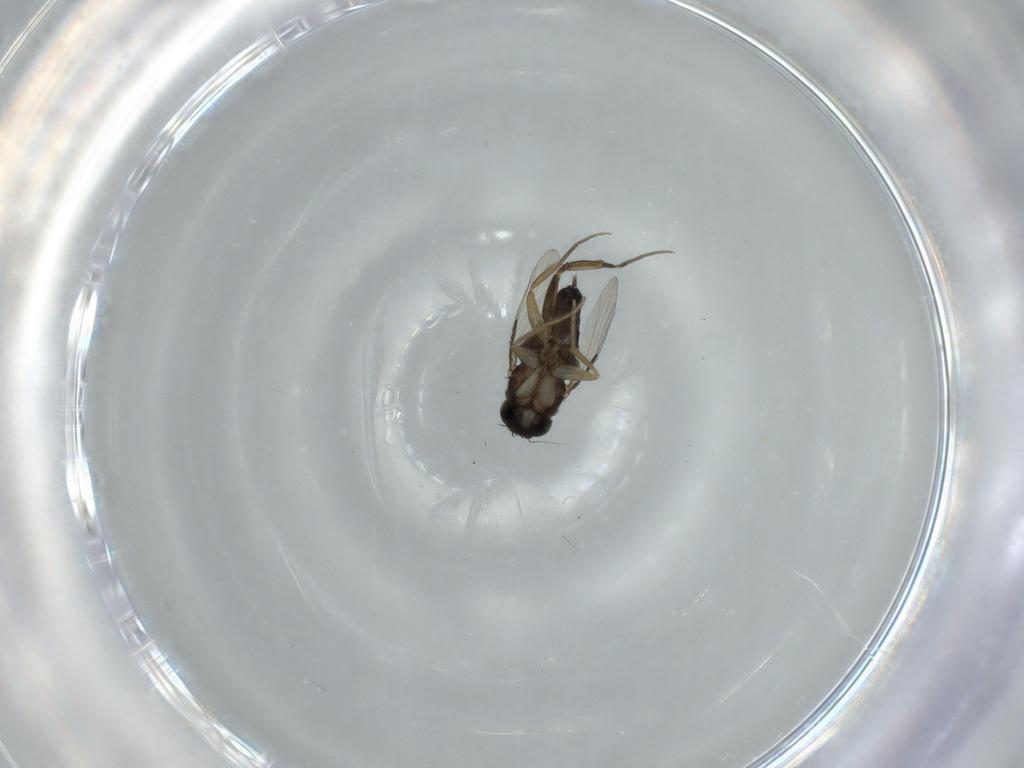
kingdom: Animalia
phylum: Arthropoda
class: Insecta
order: Diptera
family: Phoridae
